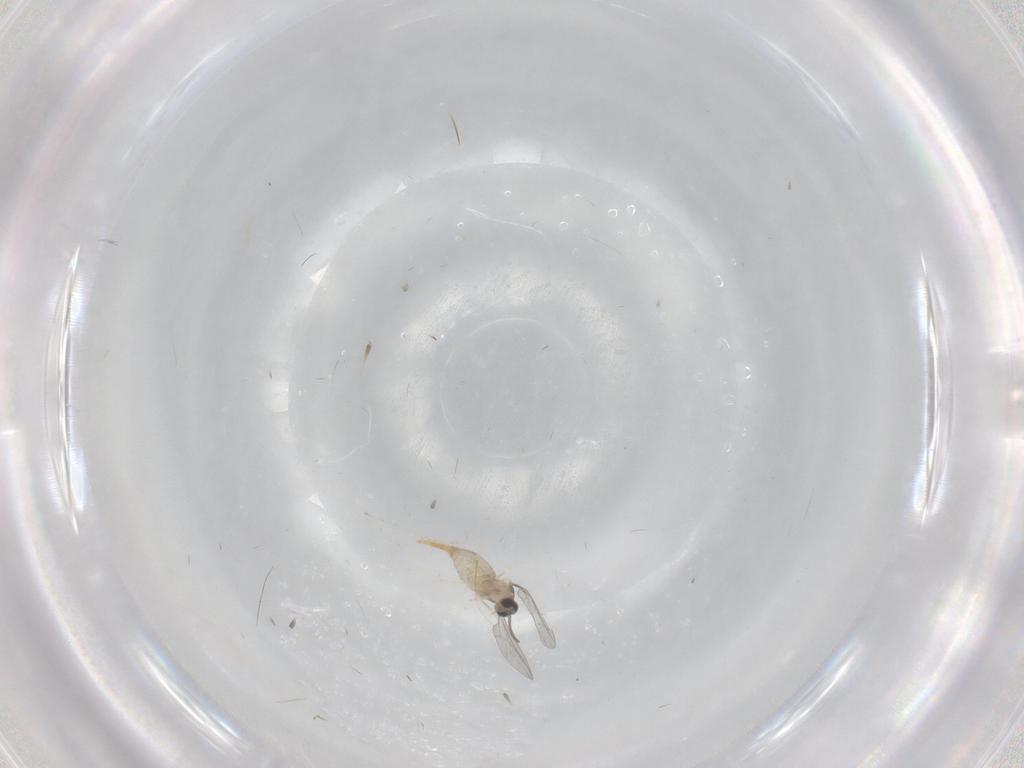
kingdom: Animalia
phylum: Arthropoda
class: Insecta
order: Diptera
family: Limoniidae
